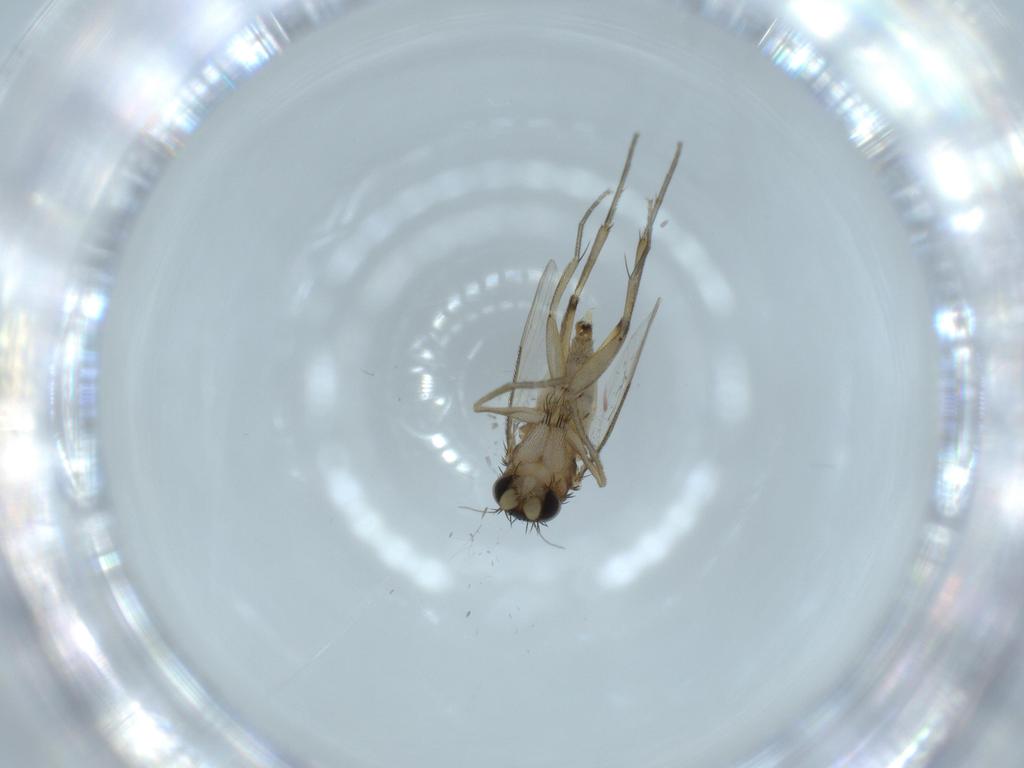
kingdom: Animalia
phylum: Arthropoda
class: Insecta
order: Diptera
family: Phoridae
